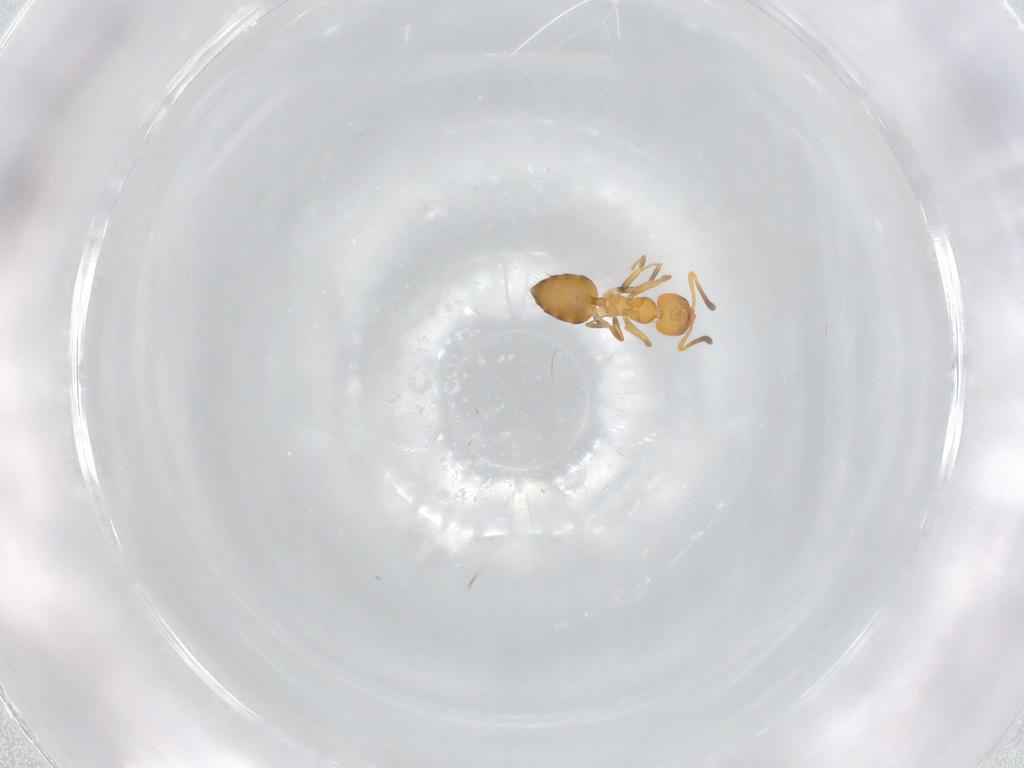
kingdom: Animalia
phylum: Arthropoda
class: Insecta
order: Hymenoptera
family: Formicidae
